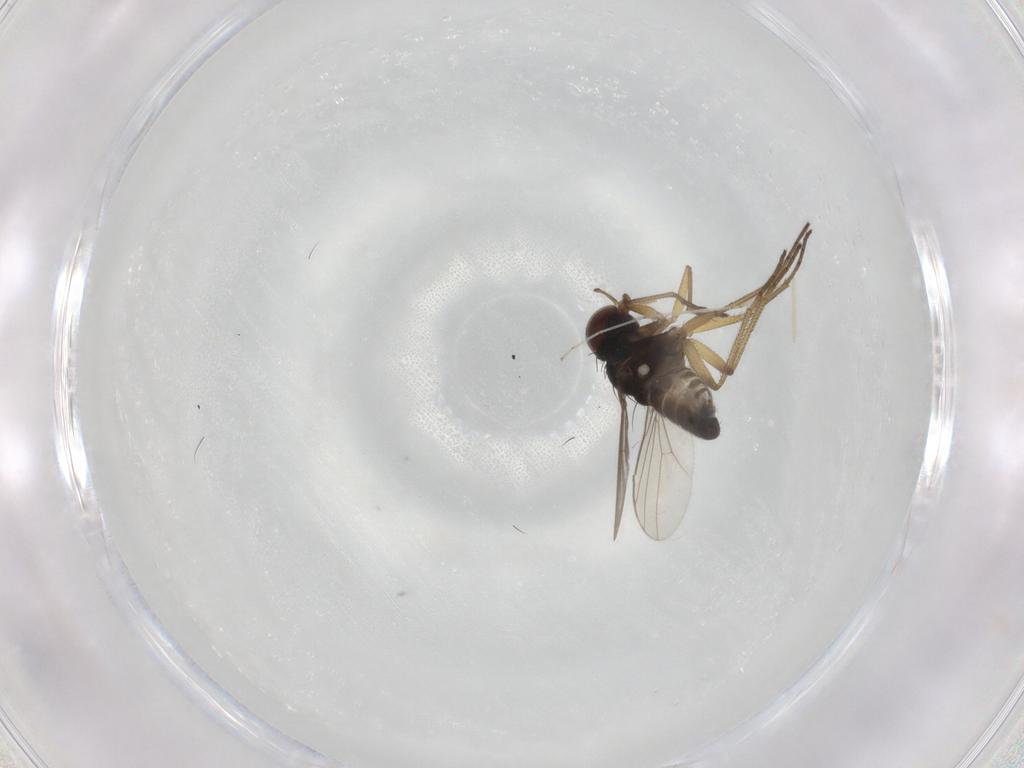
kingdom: Animalia
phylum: Arthropoda
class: Insecta
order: Diptera
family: Dolichopodidae
